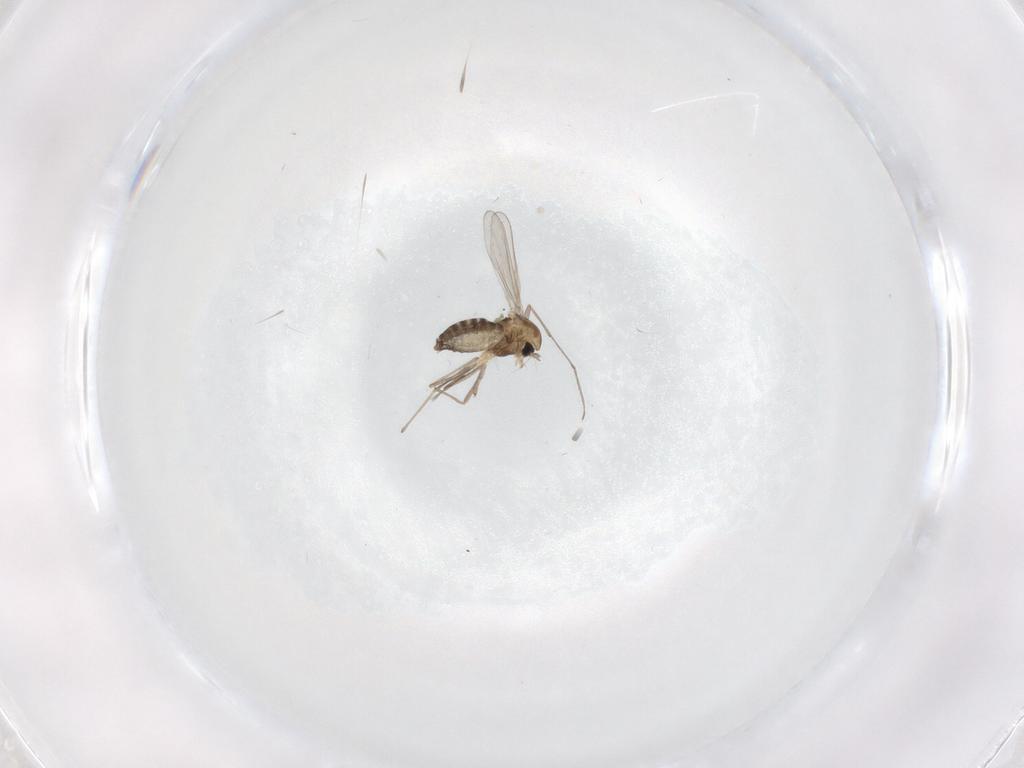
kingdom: Animalia
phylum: Arthropoda
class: Insecta
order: Diptera
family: Chironomidae
